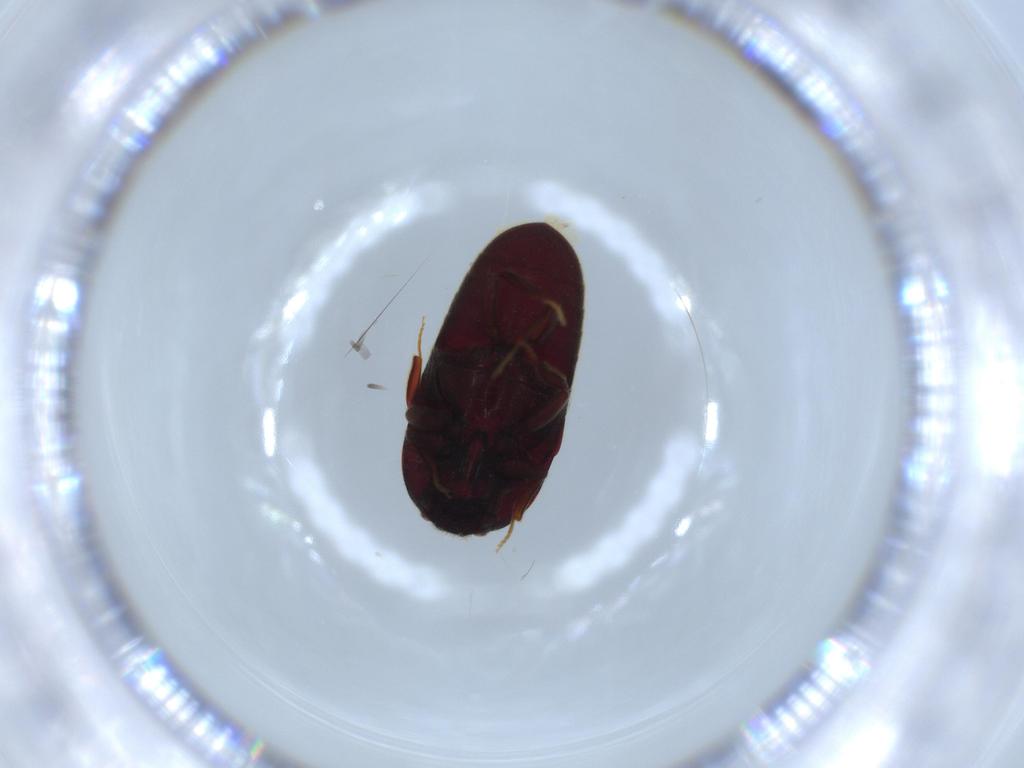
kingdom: Animalia
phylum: Arthropoda
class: Insecta
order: Coleoptera
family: Throscidae
